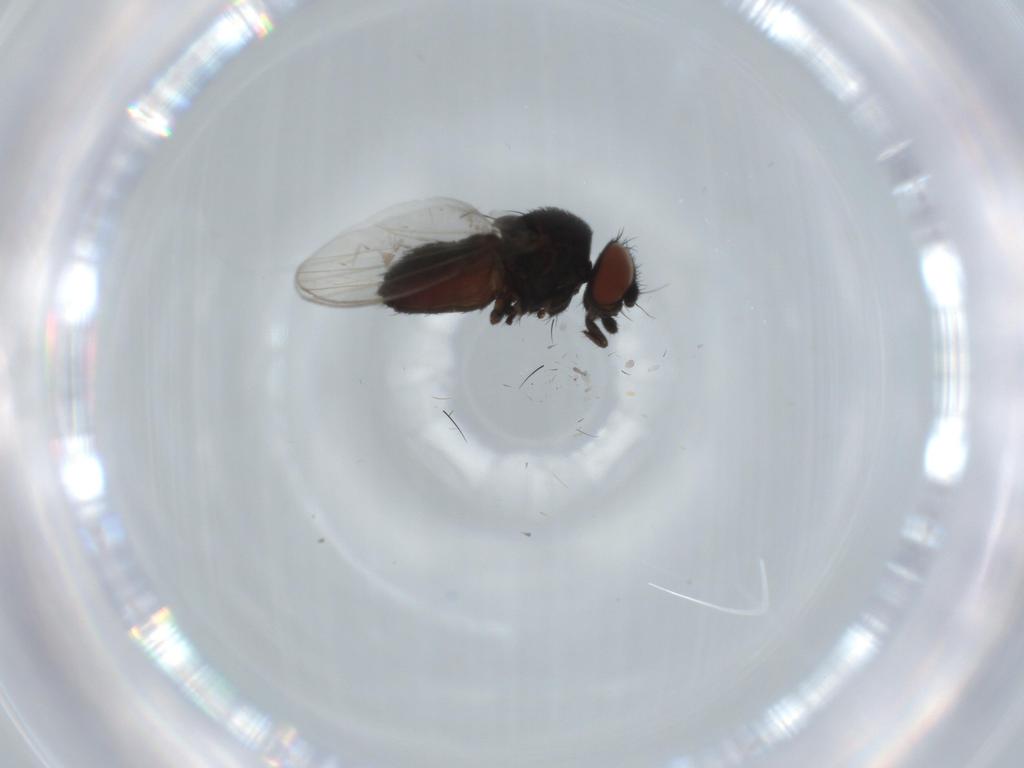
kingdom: Animalia
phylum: Arthropoda
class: Insecta
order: Diptera
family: Milichiidae
